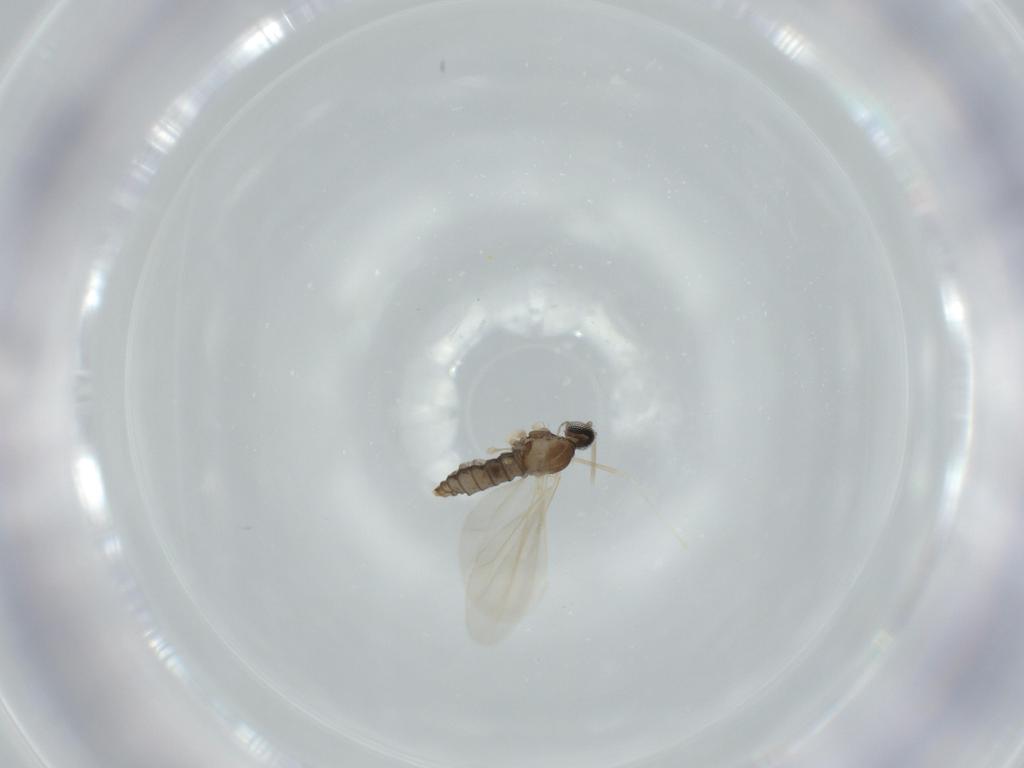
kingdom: Animalia
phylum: Arthropoda
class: Insecta
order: Diptera
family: Cecidomyiidae
